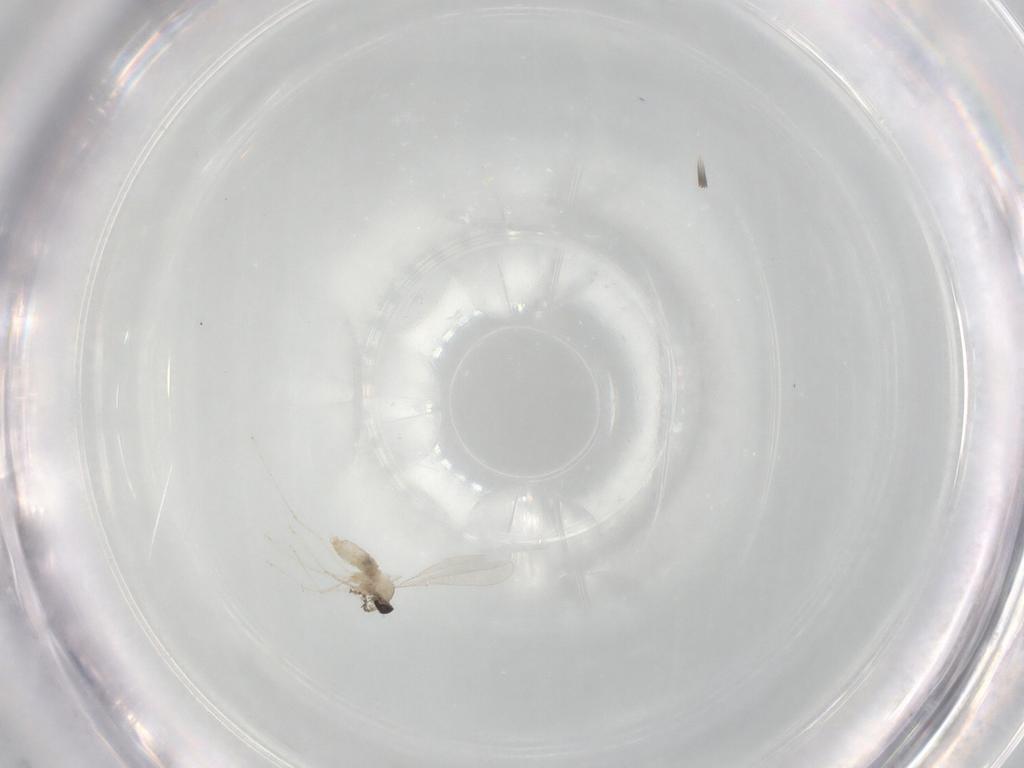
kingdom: Animalia
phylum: Arthropoda
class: Insecta
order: Diptera
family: Cecidomyiidae
